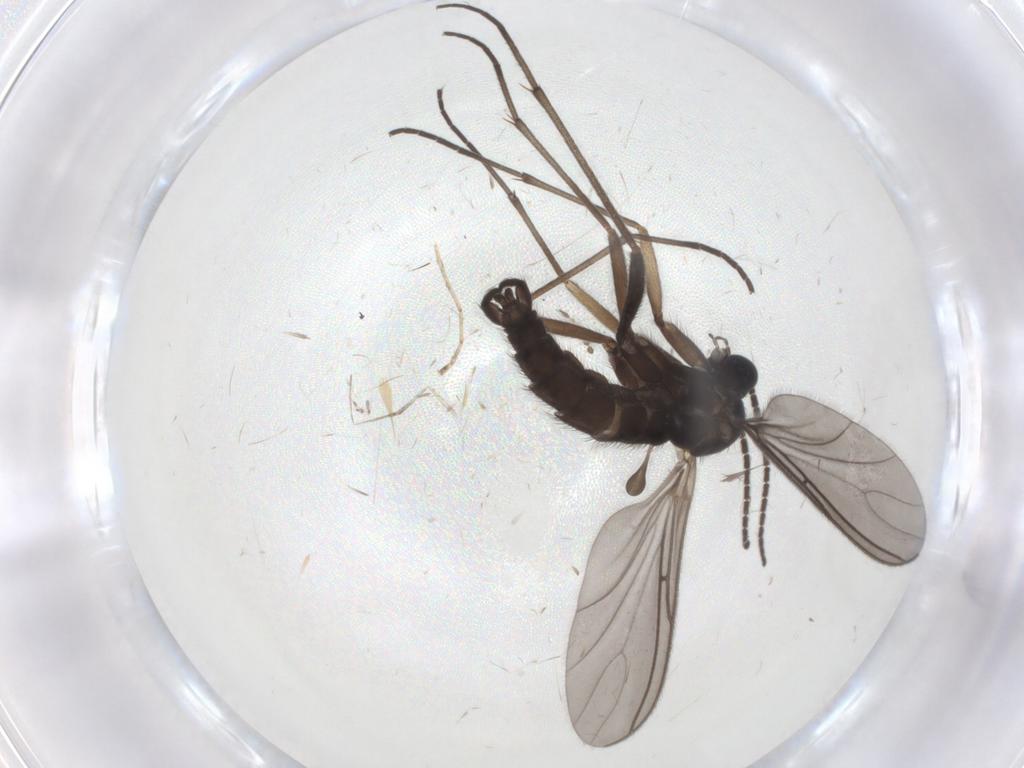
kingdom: Animalia
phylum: Arthropoda
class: Insecta
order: Diptera
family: Sciaridae
